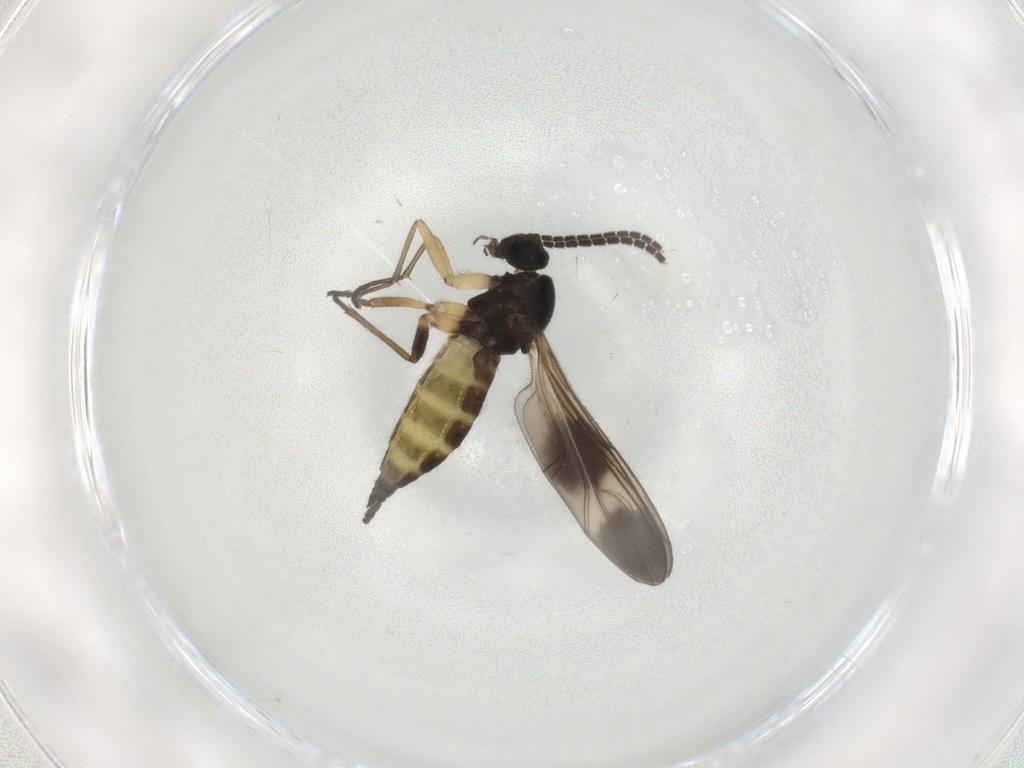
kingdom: Animalia
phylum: Arthropoda
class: Insecta
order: Diptera
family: Sciaridae
